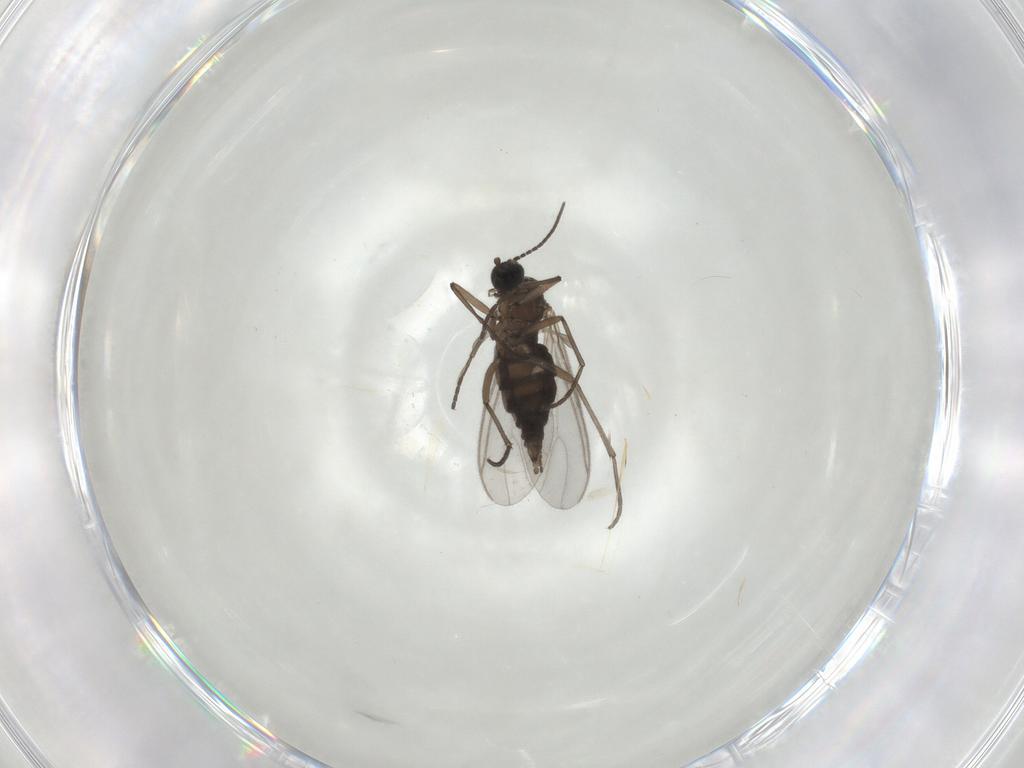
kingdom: Animalia
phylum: Arthropoda
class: Insecta
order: Diptera
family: Sciaridae
